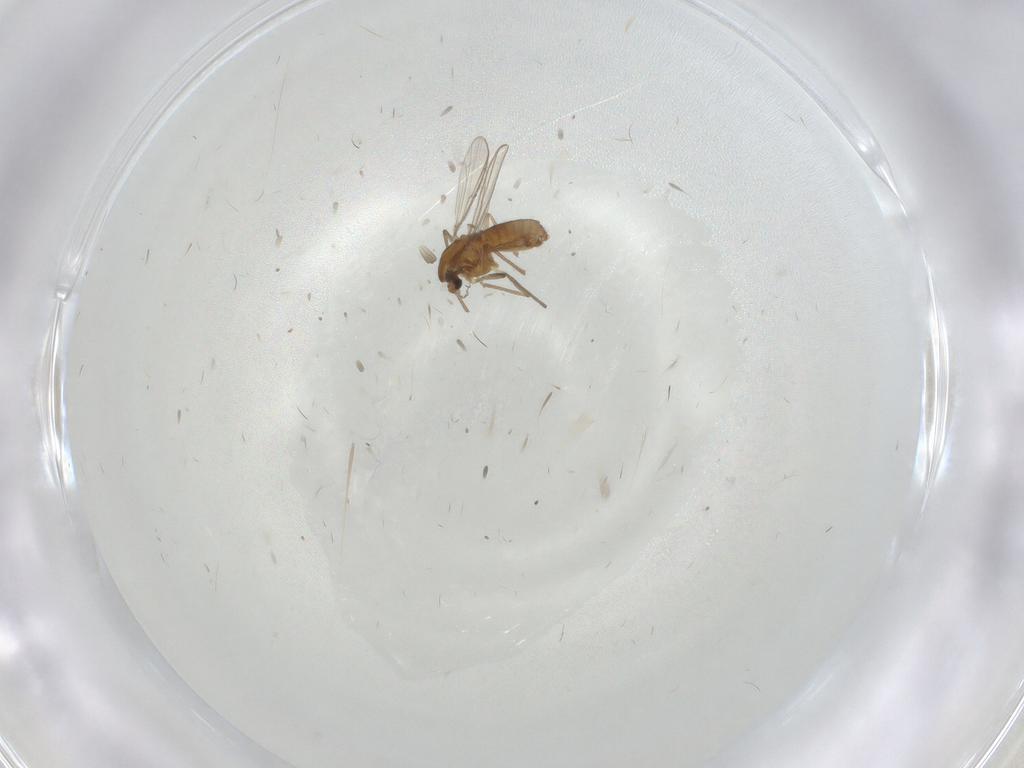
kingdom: Animalia
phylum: Arthropoda
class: Insecta
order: Diptera
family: Chironomidae
